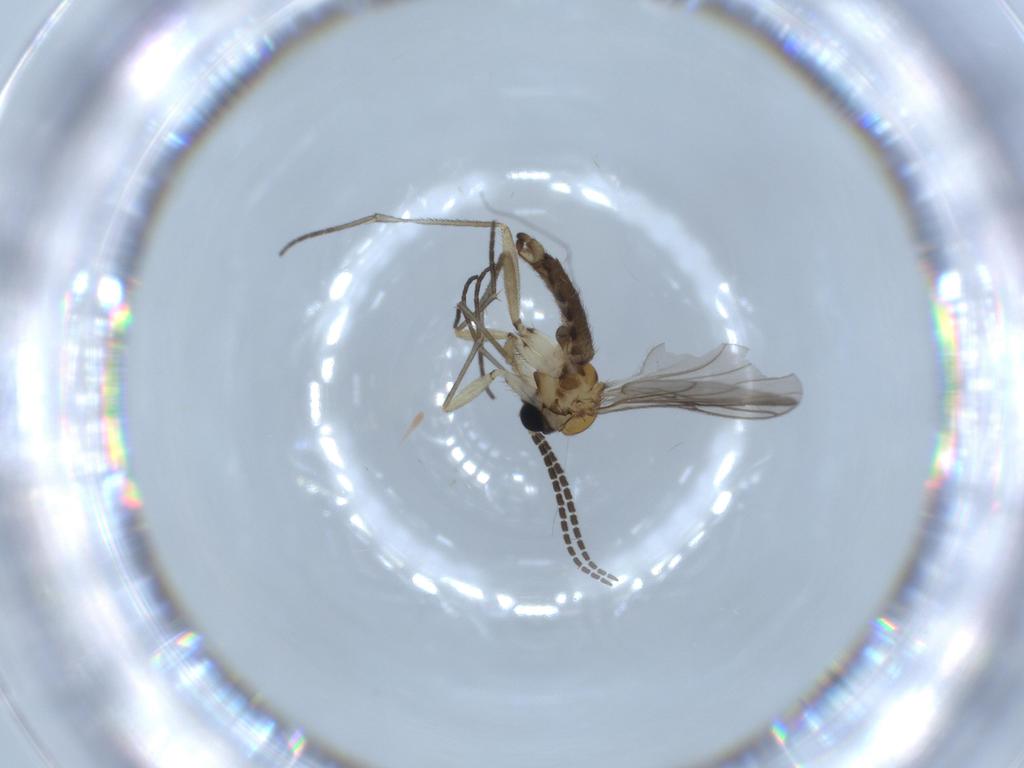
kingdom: Animalia
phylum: Arthropoda
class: Insecta
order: Diptera
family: Sciaridae
